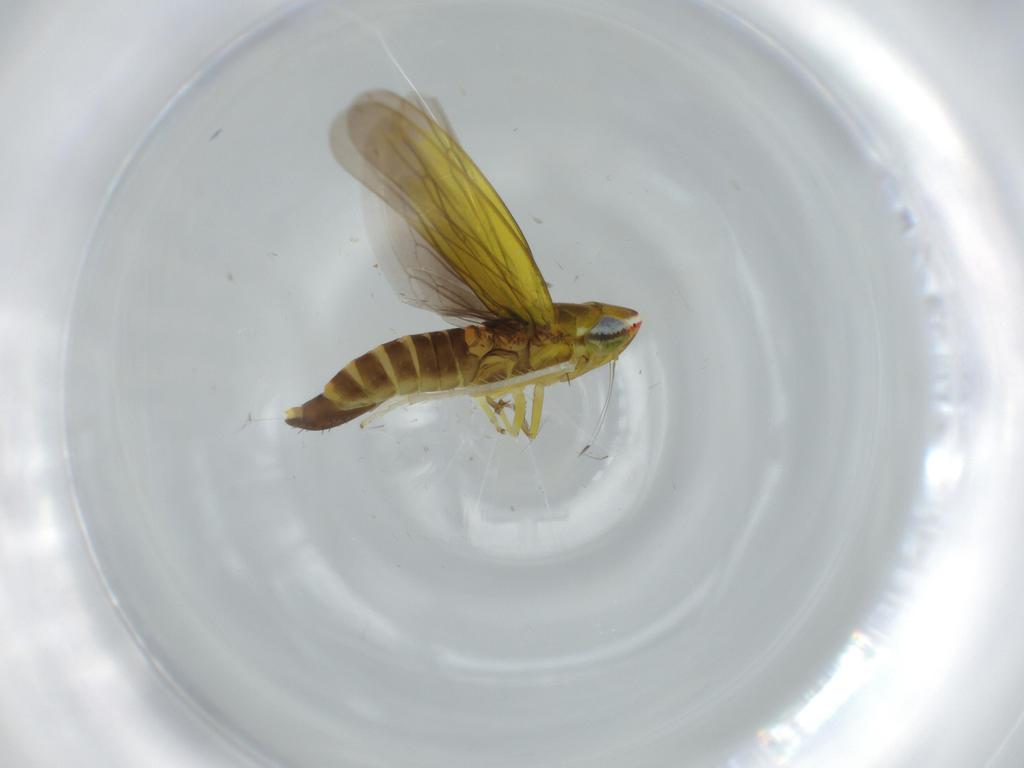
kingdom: Animalia
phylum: Arthropoda
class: Insecta
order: Hemiptera
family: Cicadellidae
